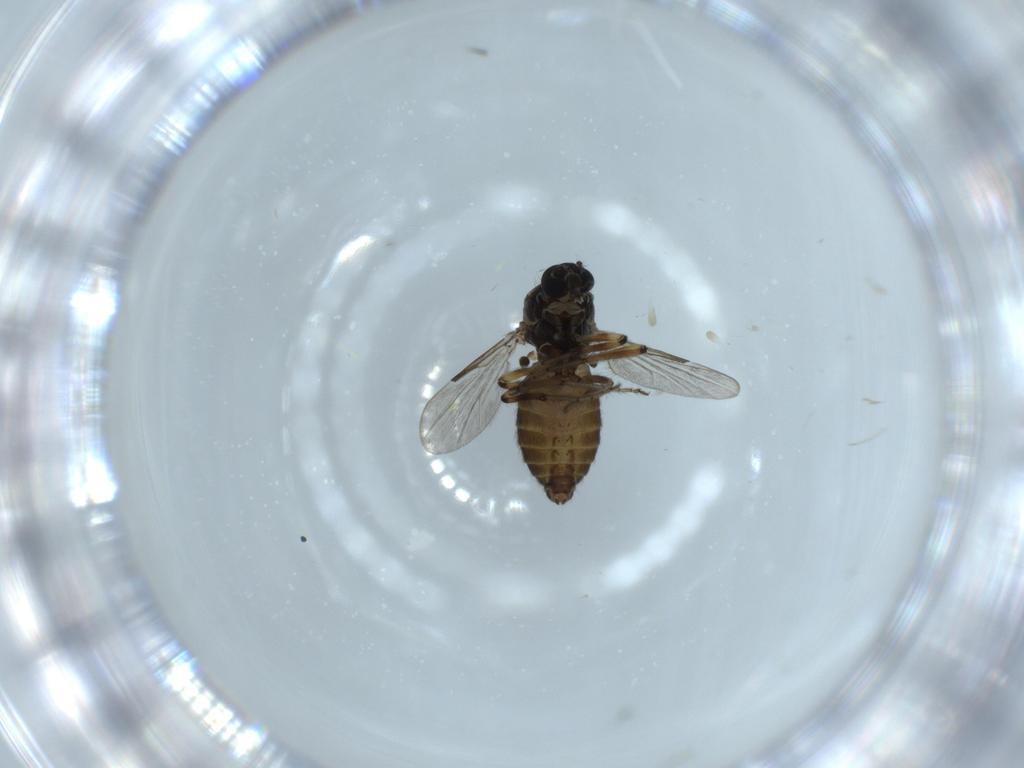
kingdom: Animalia
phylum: Arthropoda
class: Insecta
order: Diptera
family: Ceratopogonidae
